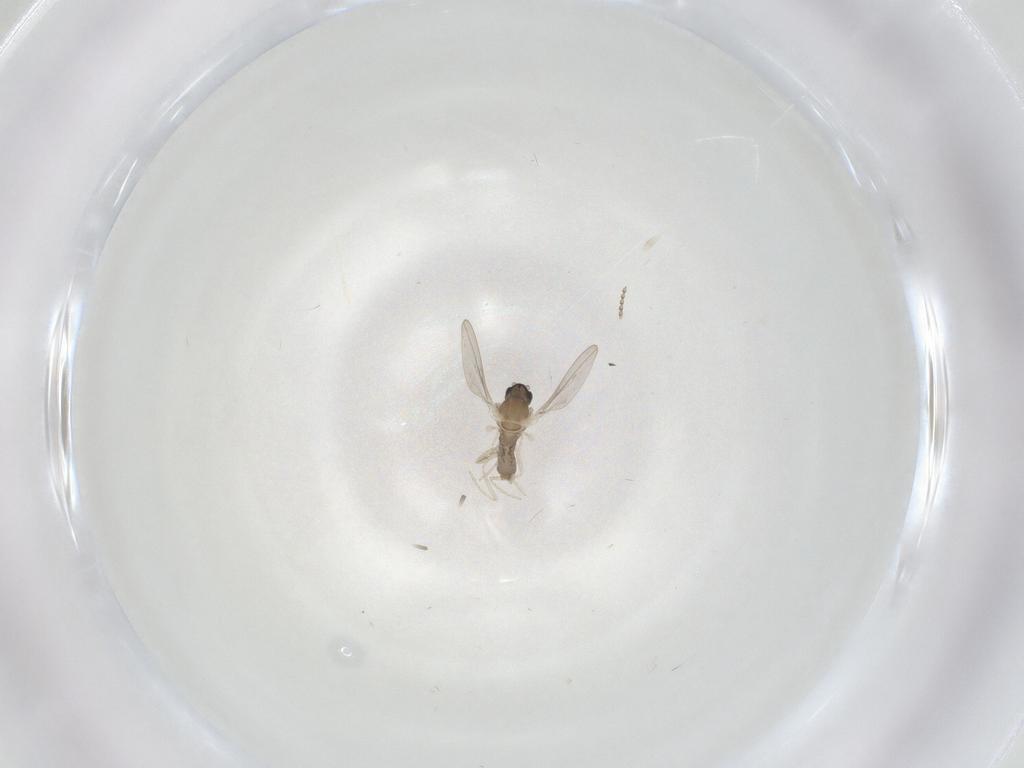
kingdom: Animalia
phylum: Arthropoda
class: Insecta
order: Diptera
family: Cecidomyiidae
